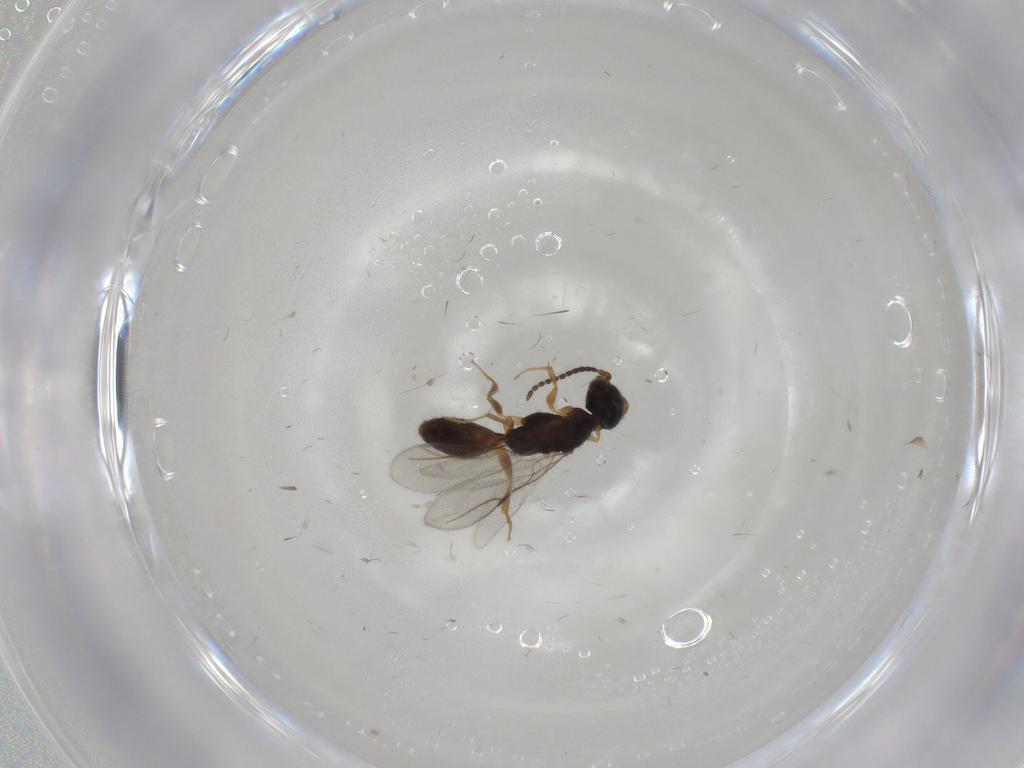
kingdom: Animalia
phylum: Arthropoda
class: Insecta
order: Hymenoptera
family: Bethylidae
